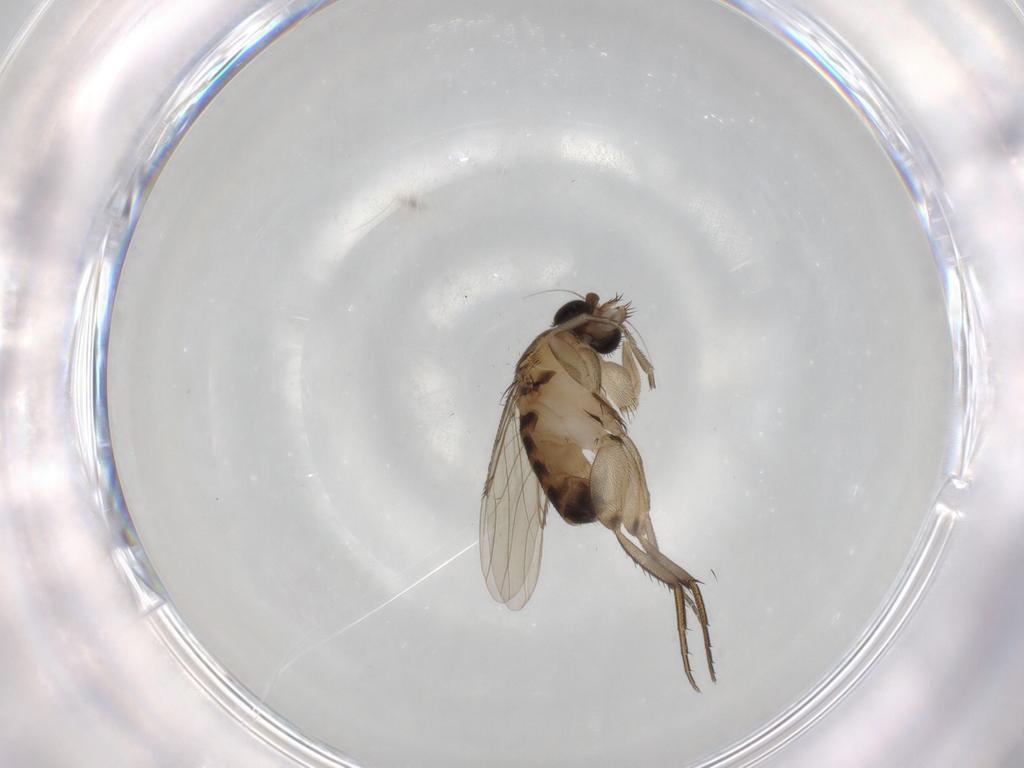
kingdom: Animalia
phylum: Arthropoda
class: Insecta
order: Diptera
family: Phoridae
